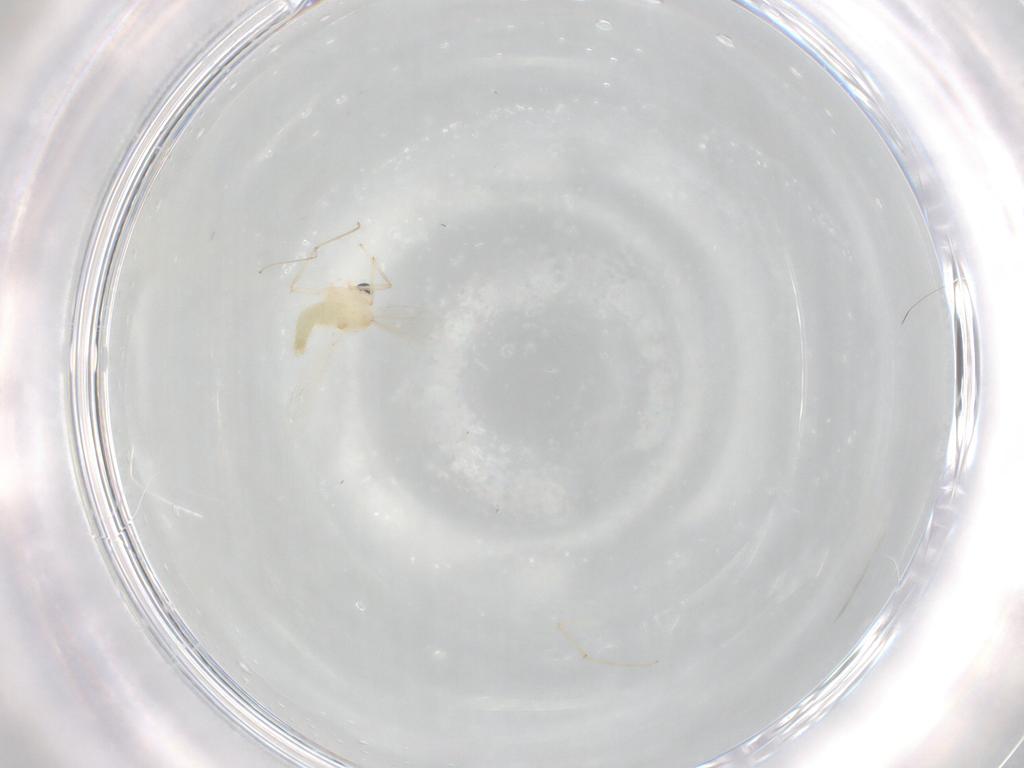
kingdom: Animalia
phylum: Arthropoda
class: Insecta
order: Diptera
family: Chironomidae
